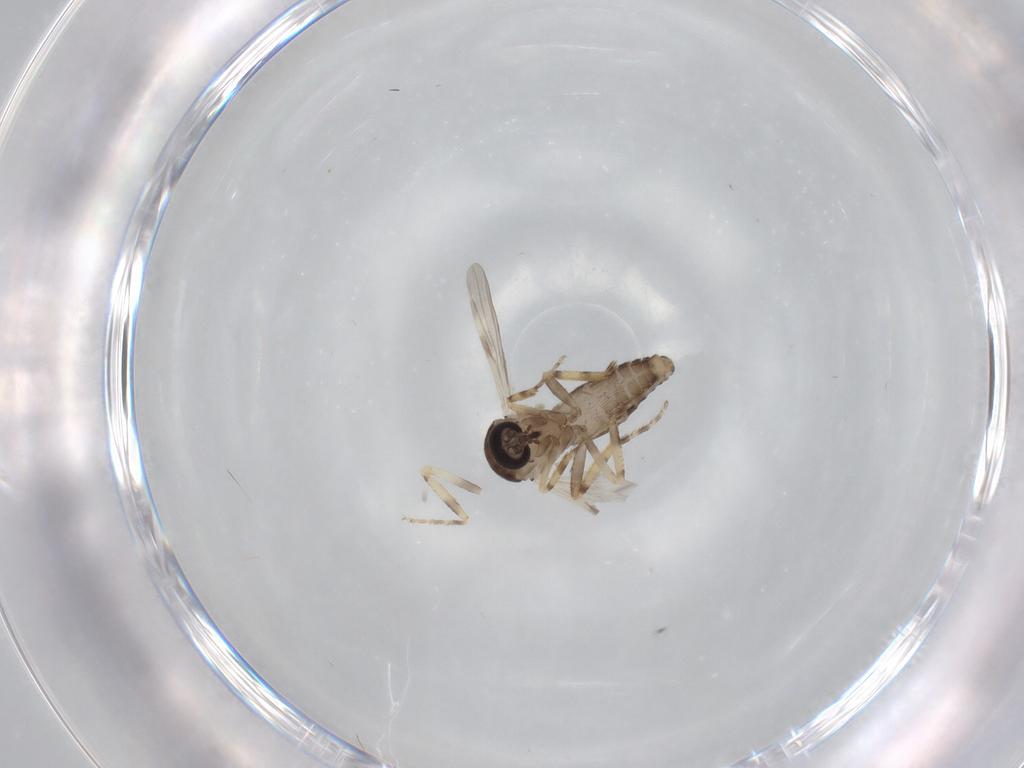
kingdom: Animalia
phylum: Arthropoda
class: Insecta
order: Diptera
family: Ceratopogonidae
